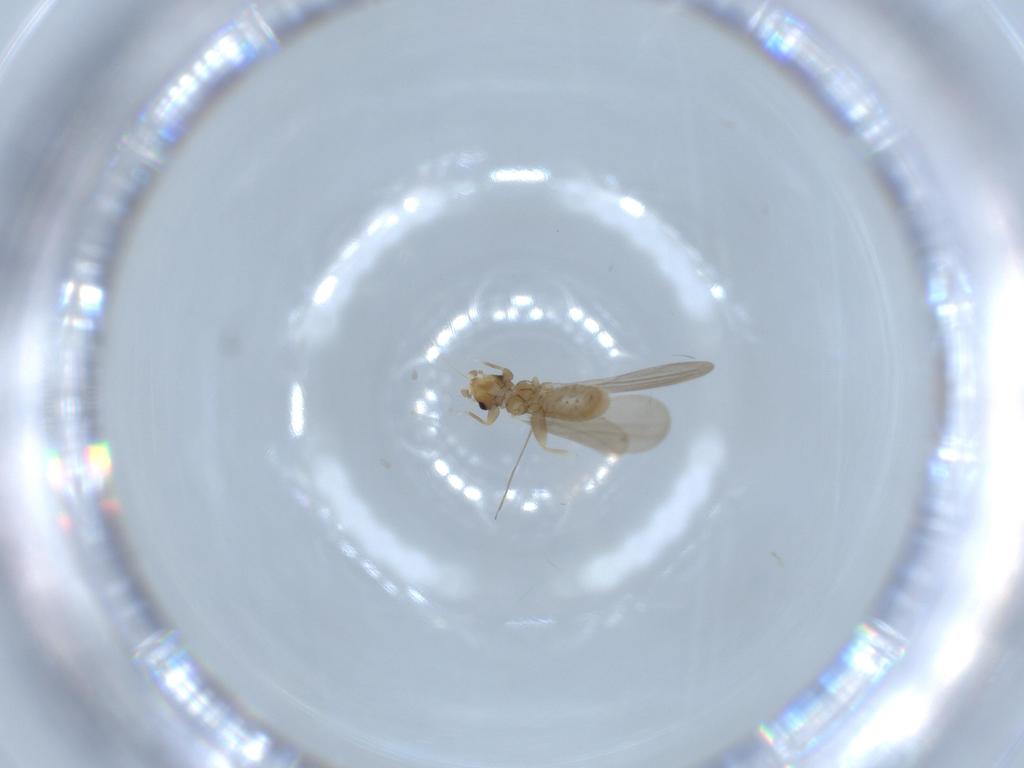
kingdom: Animalia
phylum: Arthropoda
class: Insecta
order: Psocodea
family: Liposcelididae
